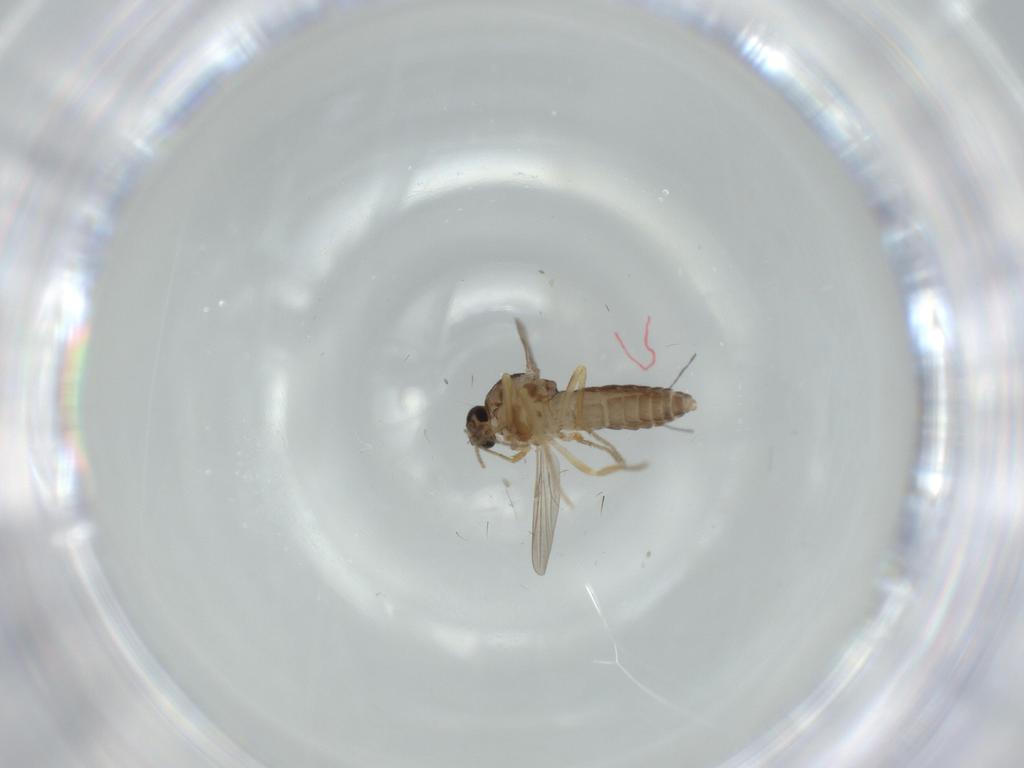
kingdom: Animalia
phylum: Arthropoda
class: Insecta
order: Diptera
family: Ceratopogonidae
